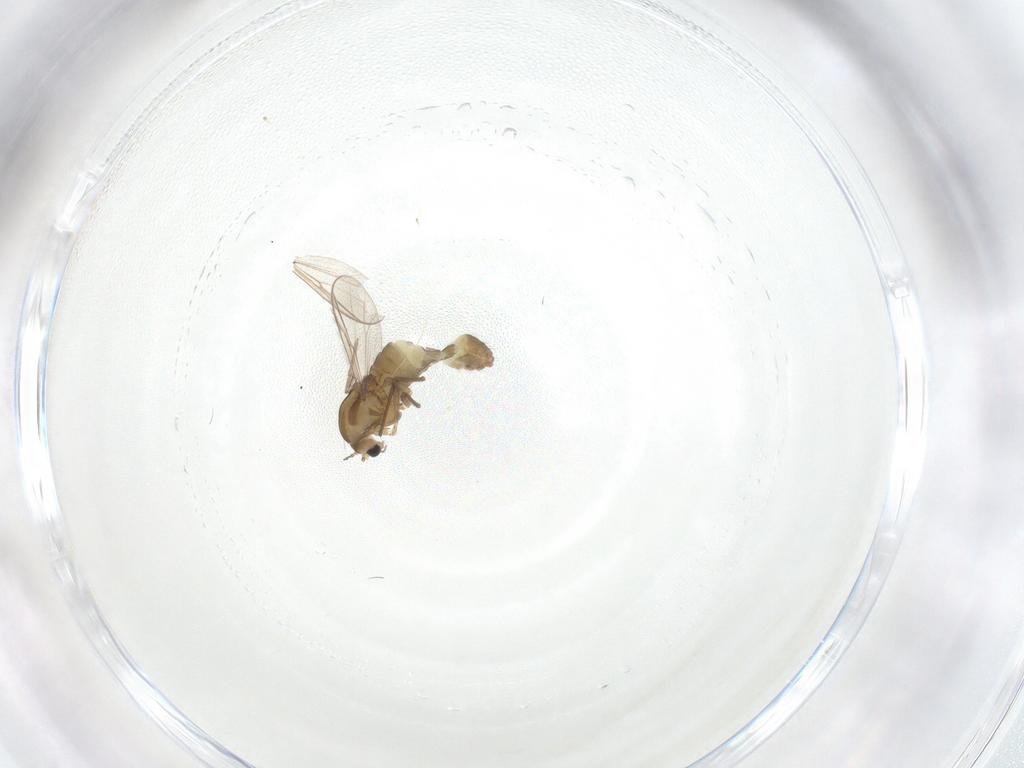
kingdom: Animalia
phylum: Arthropoda
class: Insecta
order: Diptera
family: Chironomidae
